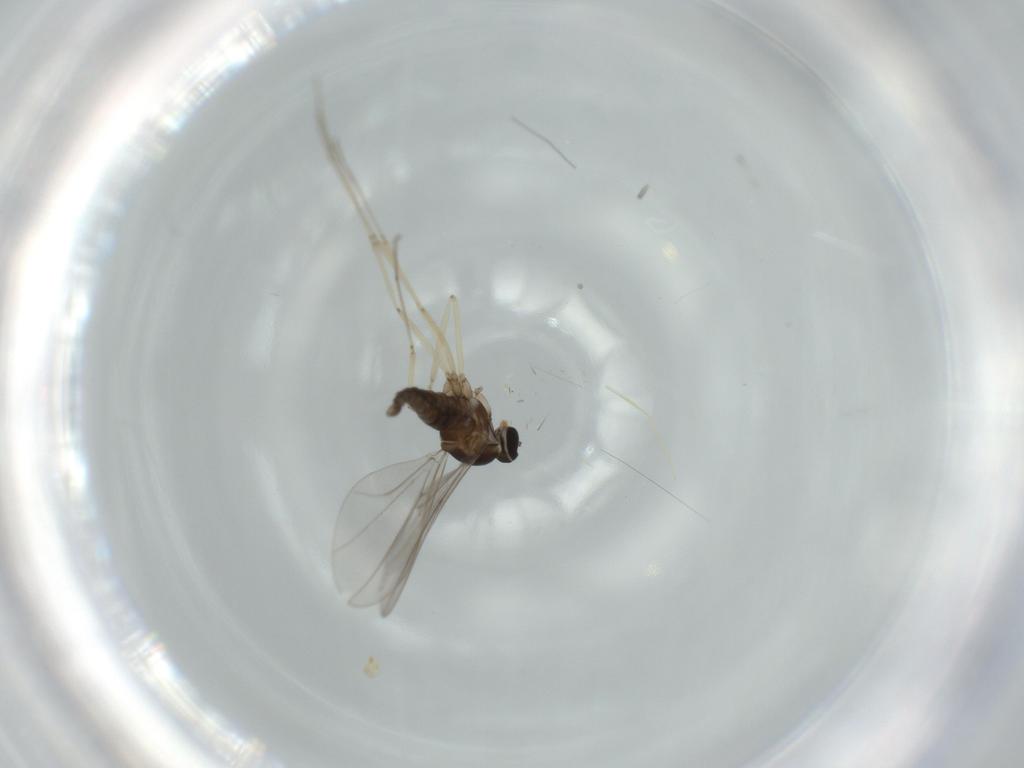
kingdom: Animalia
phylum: Arthropoda
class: Insecta
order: Diptera
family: Cecidomyiidae
